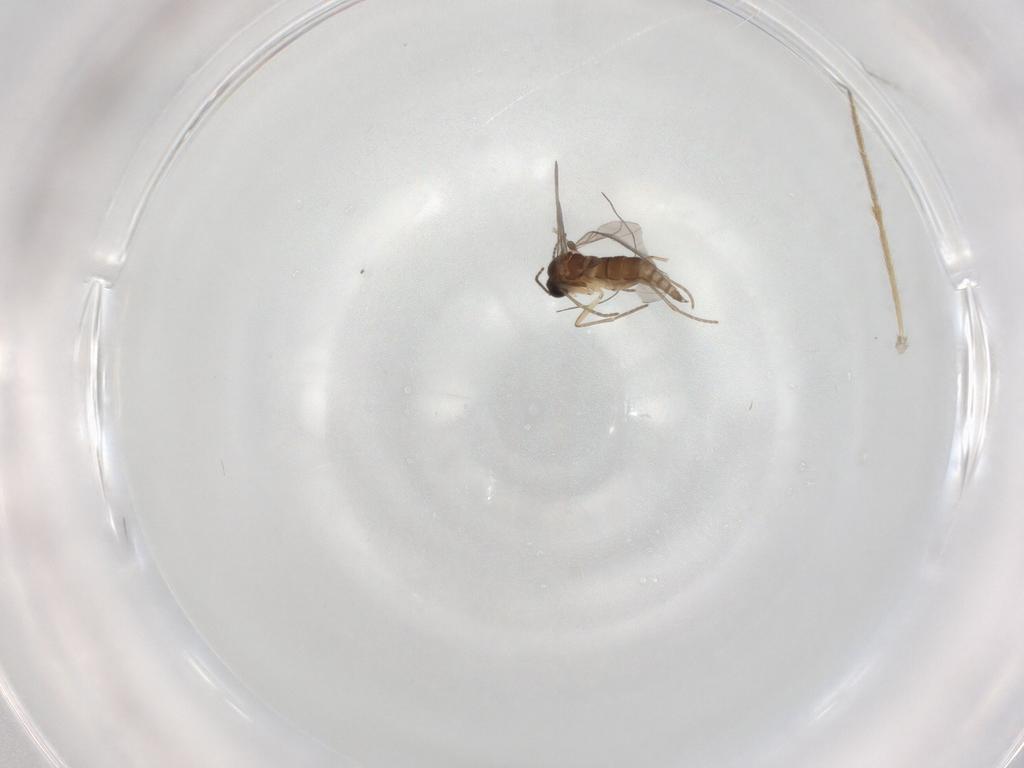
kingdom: Animalia
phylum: Arthropoda
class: Insecta
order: Diptera
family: Sciaridae
